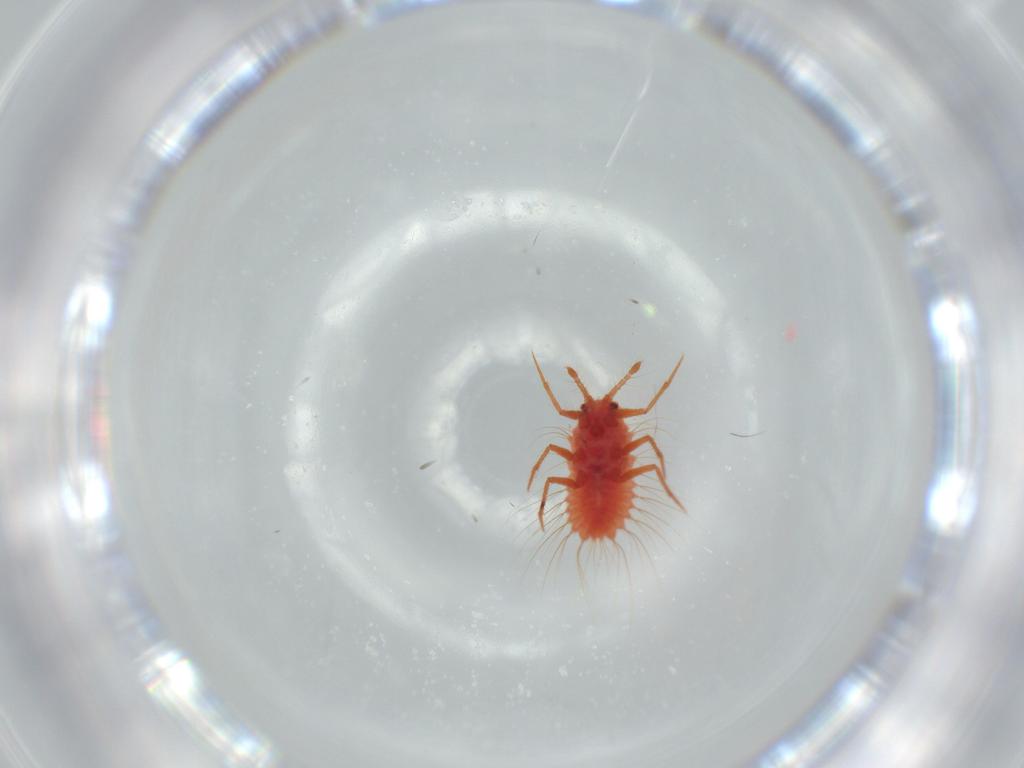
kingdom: Animalia
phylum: Arthropoda
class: Insecta
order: Hemiptera
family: Monophlebidae
